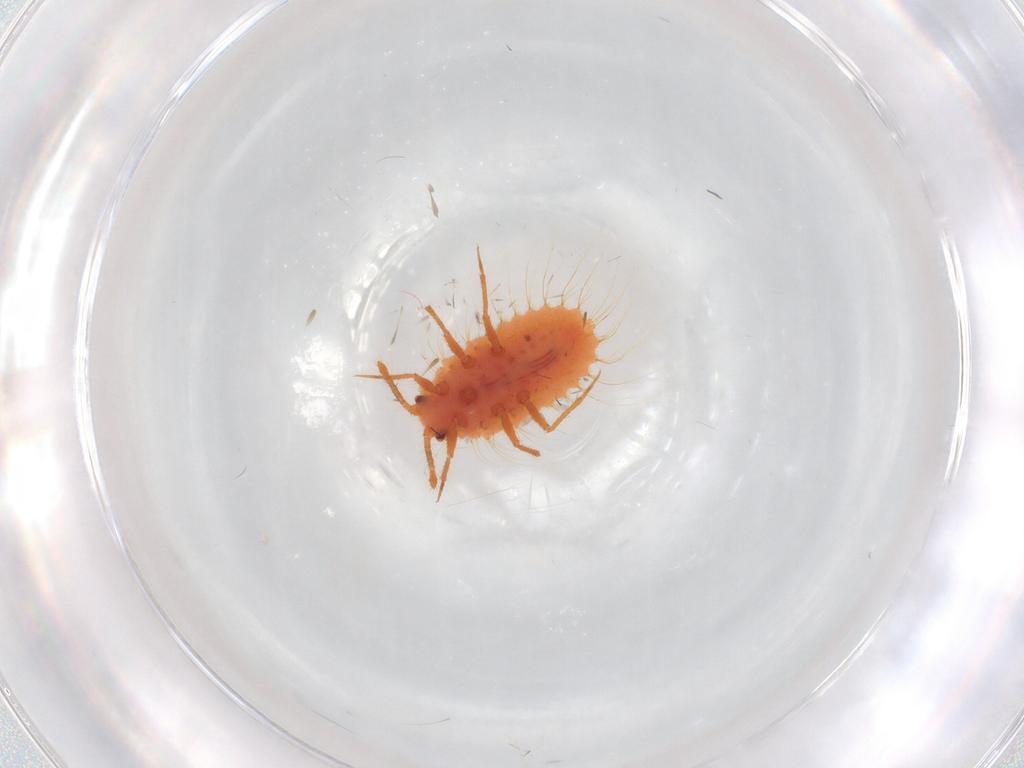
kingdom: Animalia
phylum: Arthropoda
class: Insecta
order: Hemiptera
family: Coccoidea_incertae_sedis
